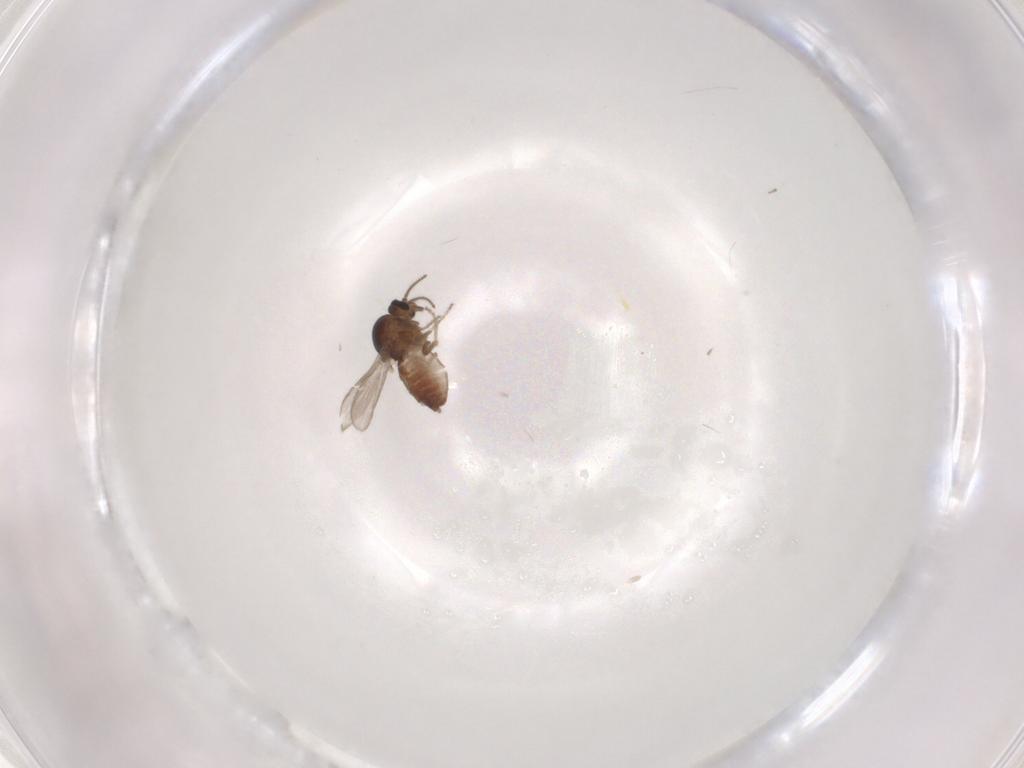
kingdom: Animalia
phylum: Arthropoda
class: Insecta
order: Diptera
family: Ceratopogonidae
